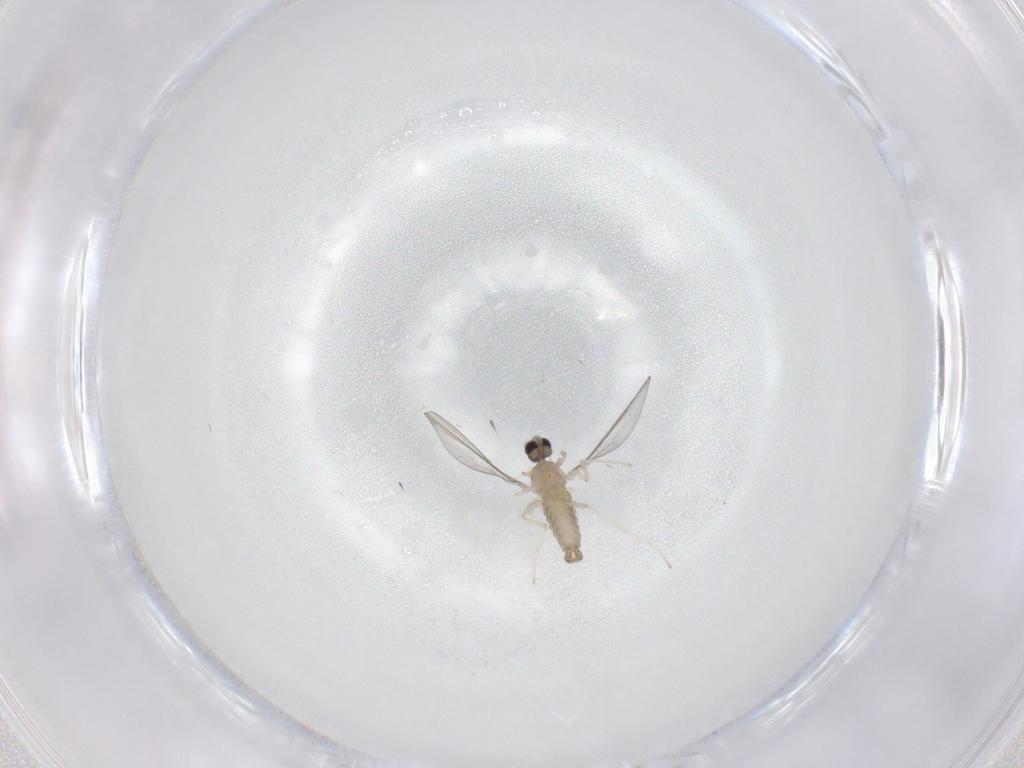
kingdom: Animalia
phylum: Arthropoda
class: Insecta
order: Diptera
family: Cecidomyiidae
